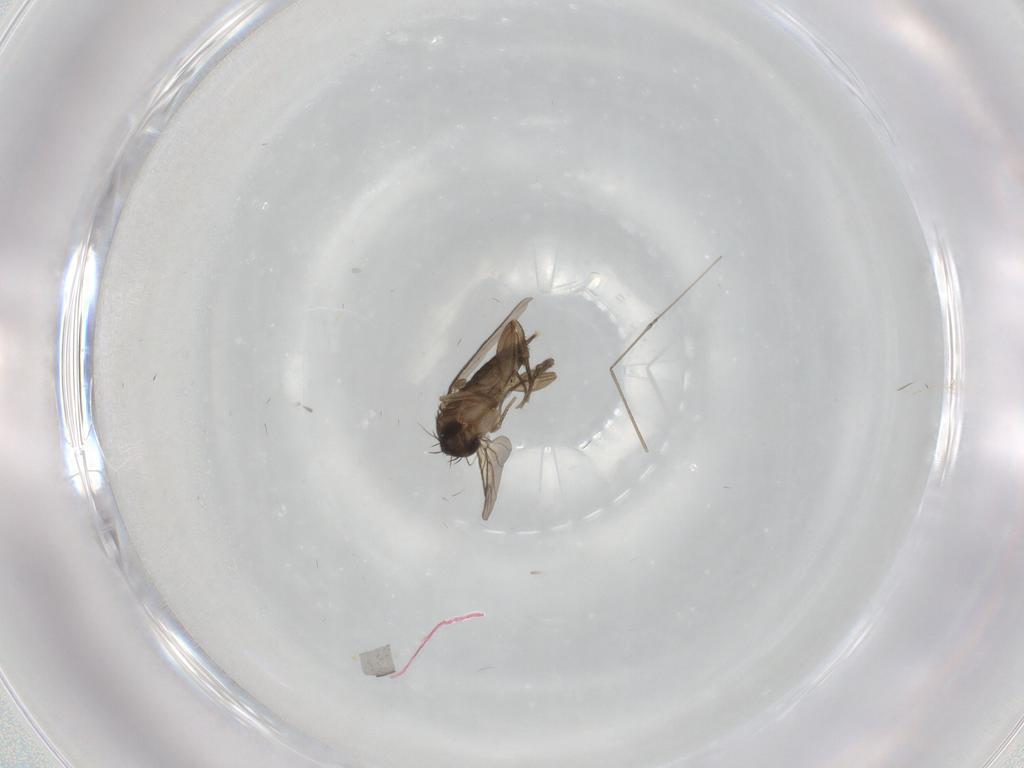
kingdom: Animalia
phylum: Arthropoda
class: Insecta
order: Diptera
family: Phoridae
